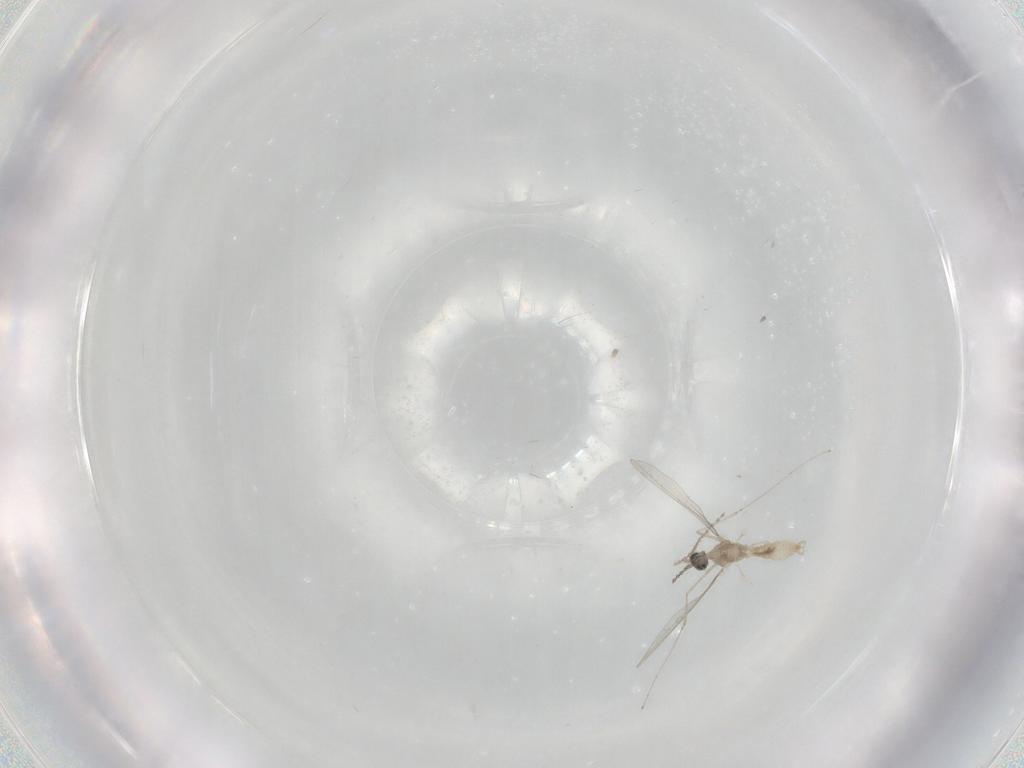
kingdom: Animalia
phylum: Arthropoda
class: Insecta
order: Diptera
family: Cecidomyiidae
